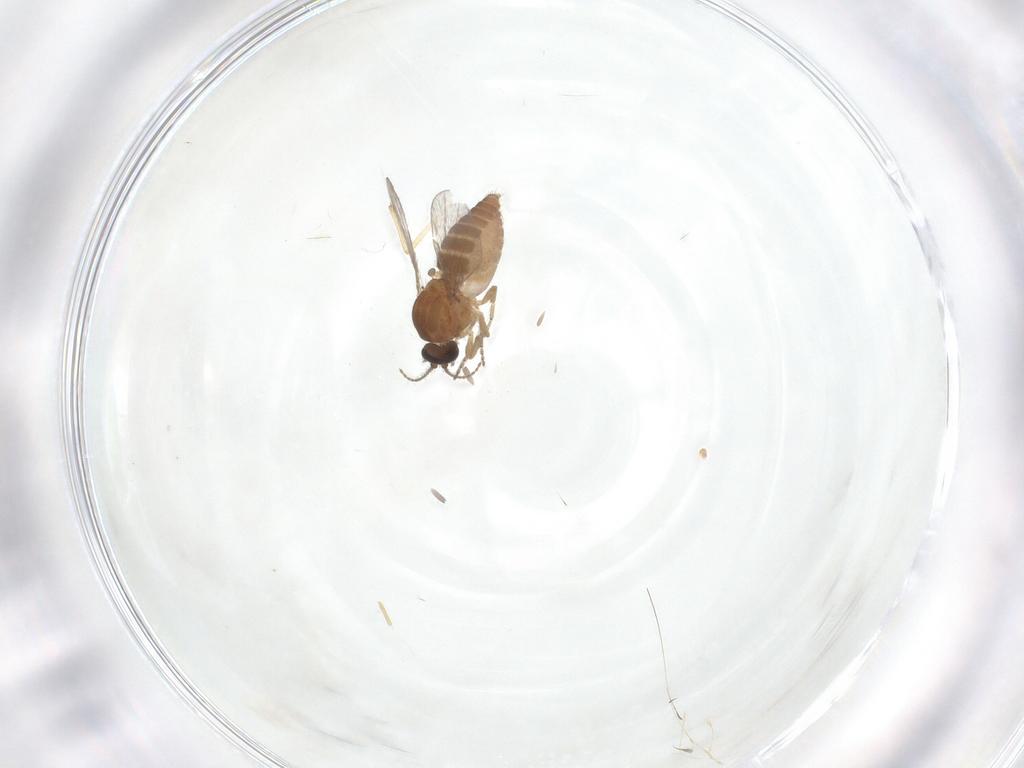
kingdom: Animalia
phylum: Arthropoda
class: Insecta
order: Diptera
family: Ceratopogonidae
